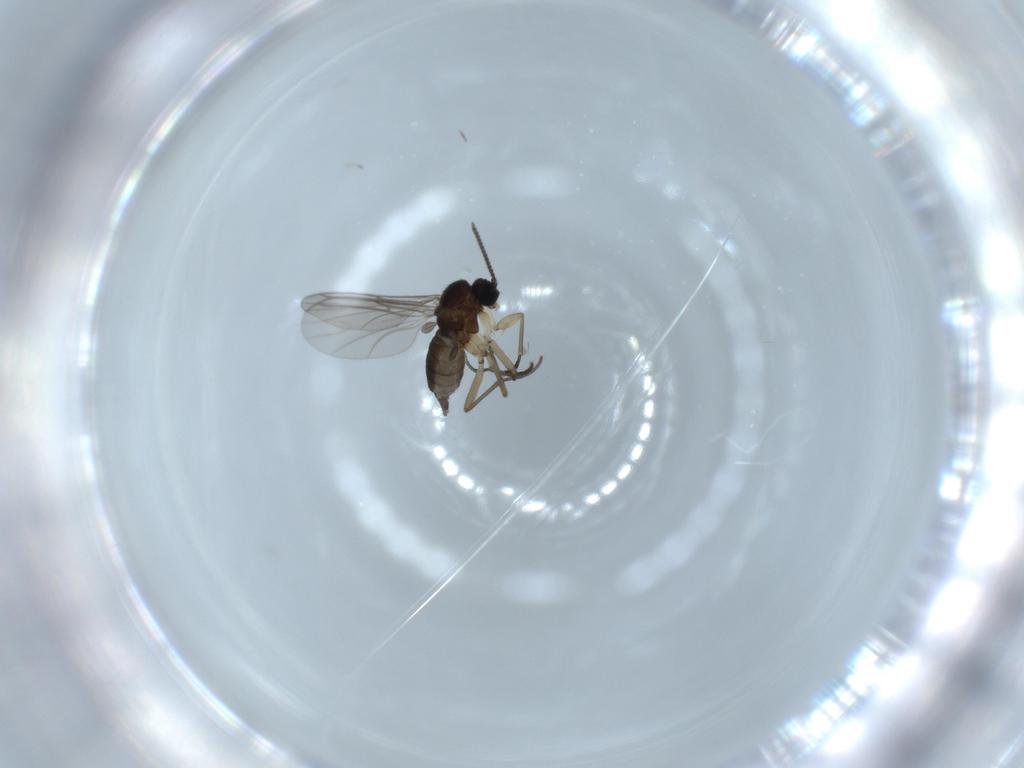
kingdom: Animalia
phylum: Arthropoda
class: Insecta
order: Diptera
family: Sciaridae
